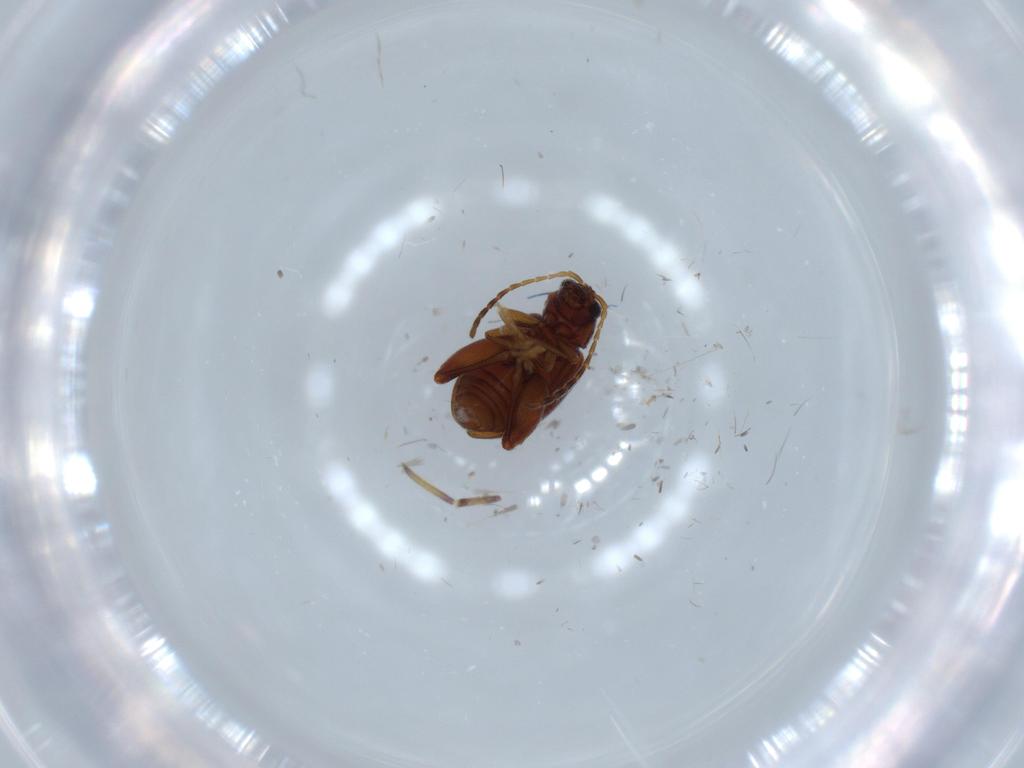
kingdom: Animalia
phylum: Arthropoda
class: Insecta
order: Coleoptera
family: Chrysomelidae
